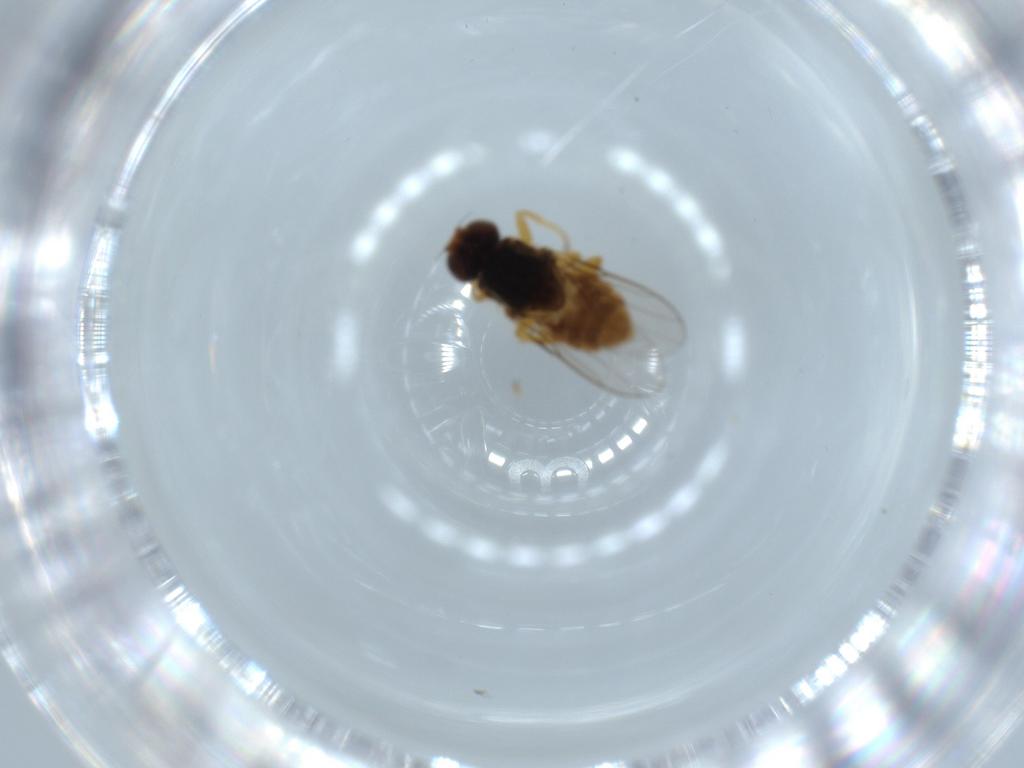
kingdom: Animalia
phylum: Arthropoda
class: Insecta
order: Diptera
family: Chloropidae
